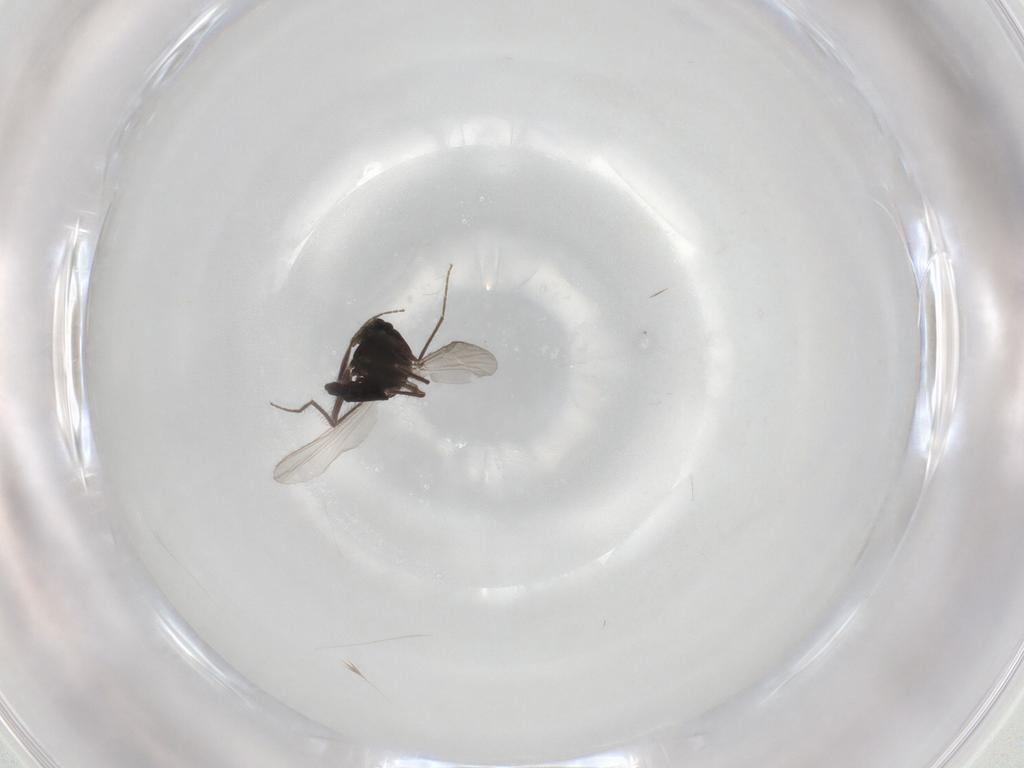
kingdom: Animalia
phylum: Arthropoda
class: Insecta
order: Diptera
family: Chironomidae
